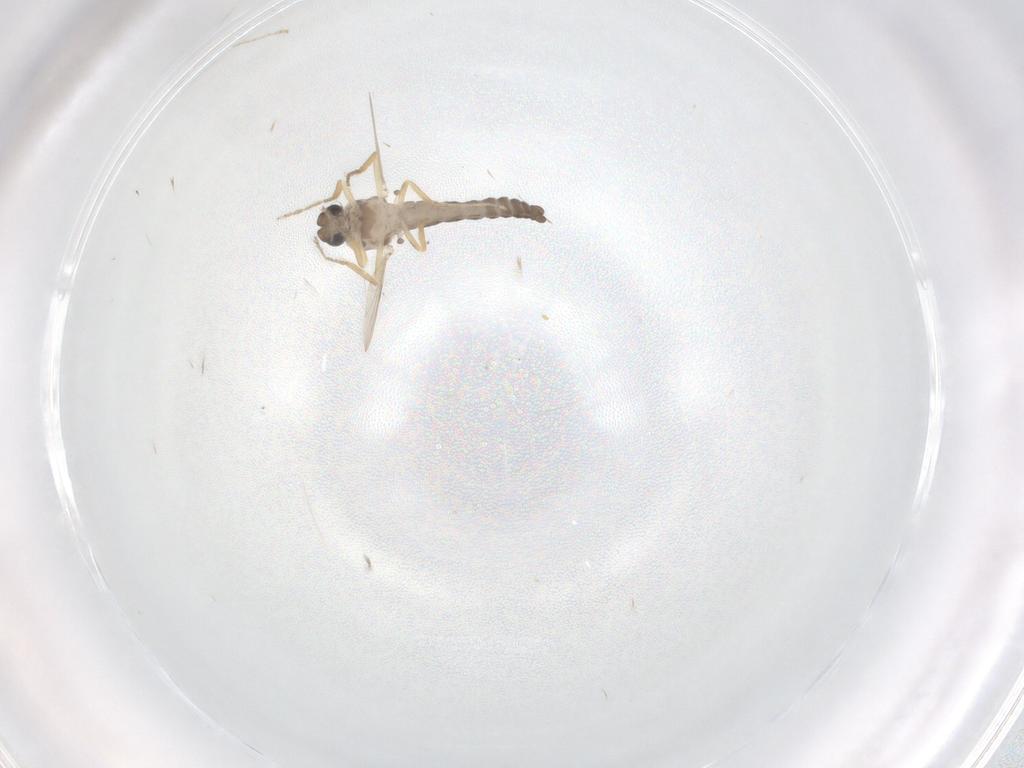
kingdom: Animalia
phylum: Arthropoda
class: Insecta
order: Diptera
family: Ceratopogonidae
